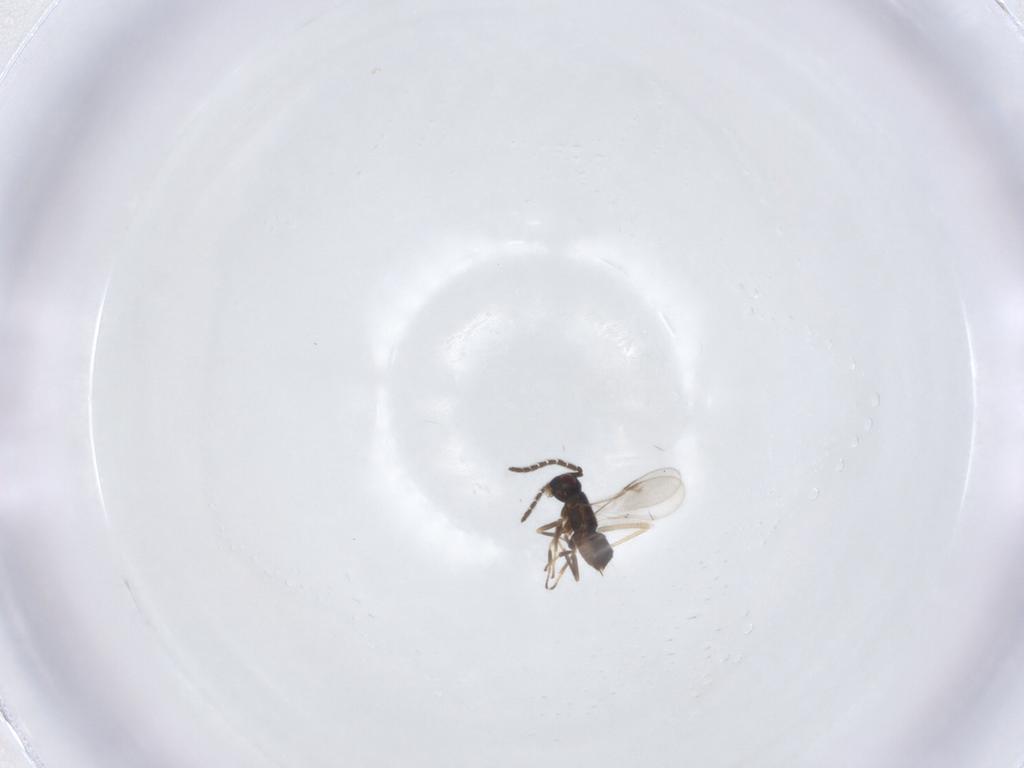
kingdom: Animalia
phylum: Arthropoda
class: Insecta
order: Hymenoptera
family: Encyrtidae
